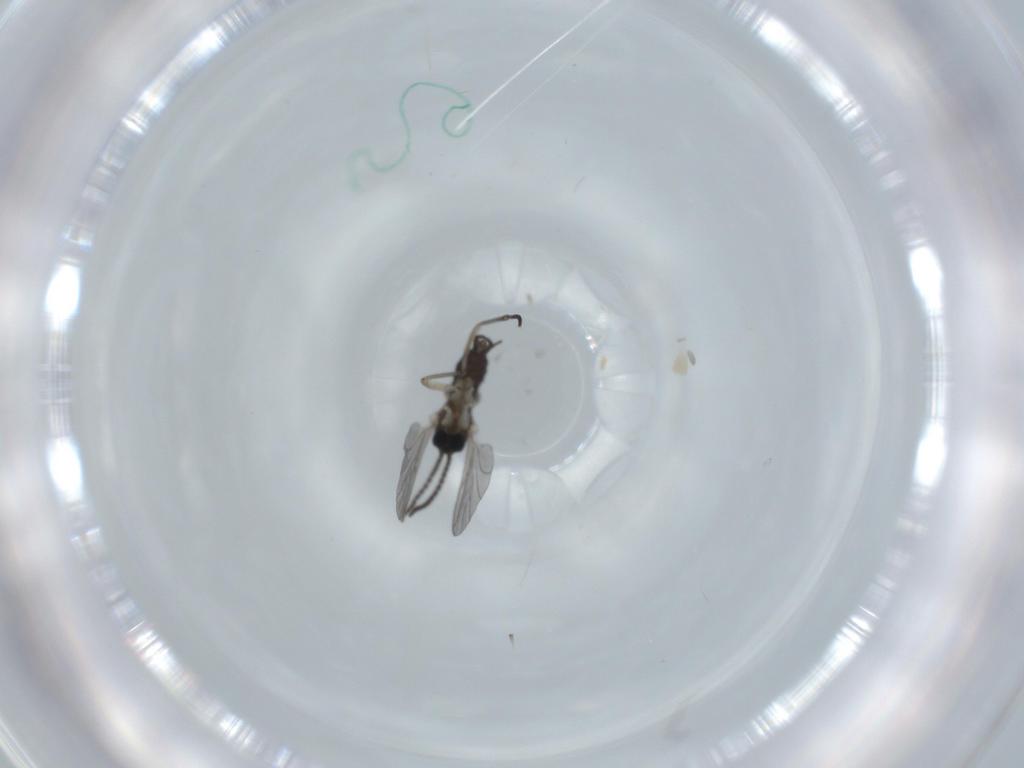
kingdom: Animalia
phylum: Arthropoda
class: Insecta
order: Diptera
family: Sciaridae
